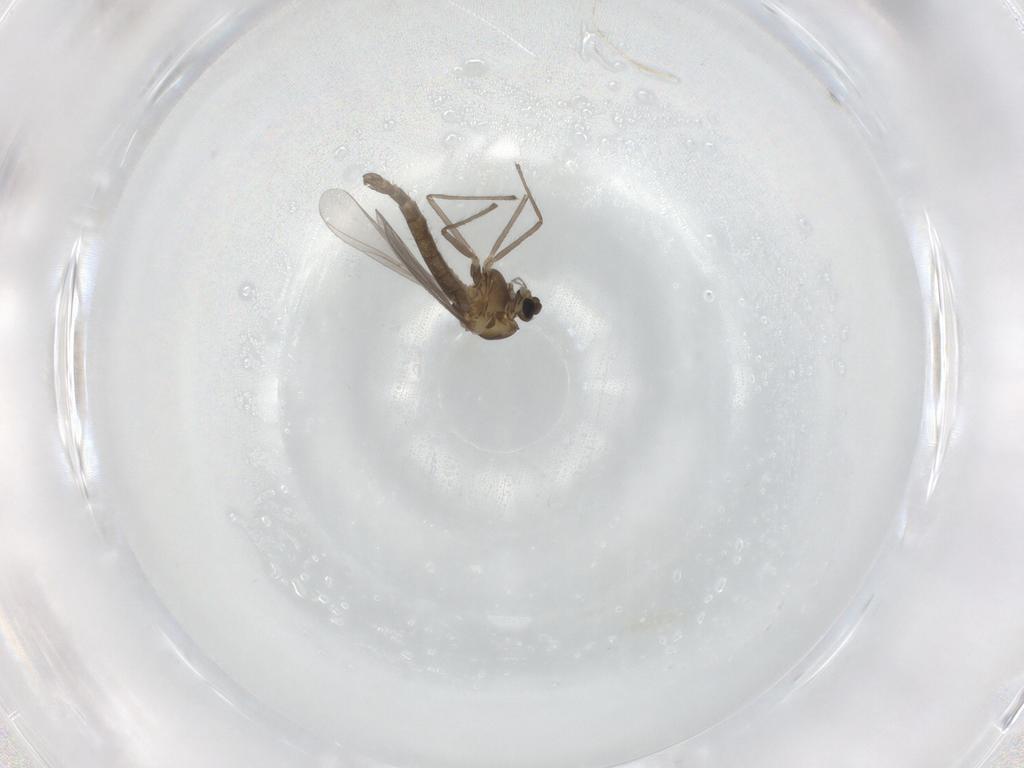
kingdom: Animalia
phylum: Arthropoda
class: Insecta
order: Diptera
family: Chironomidae
